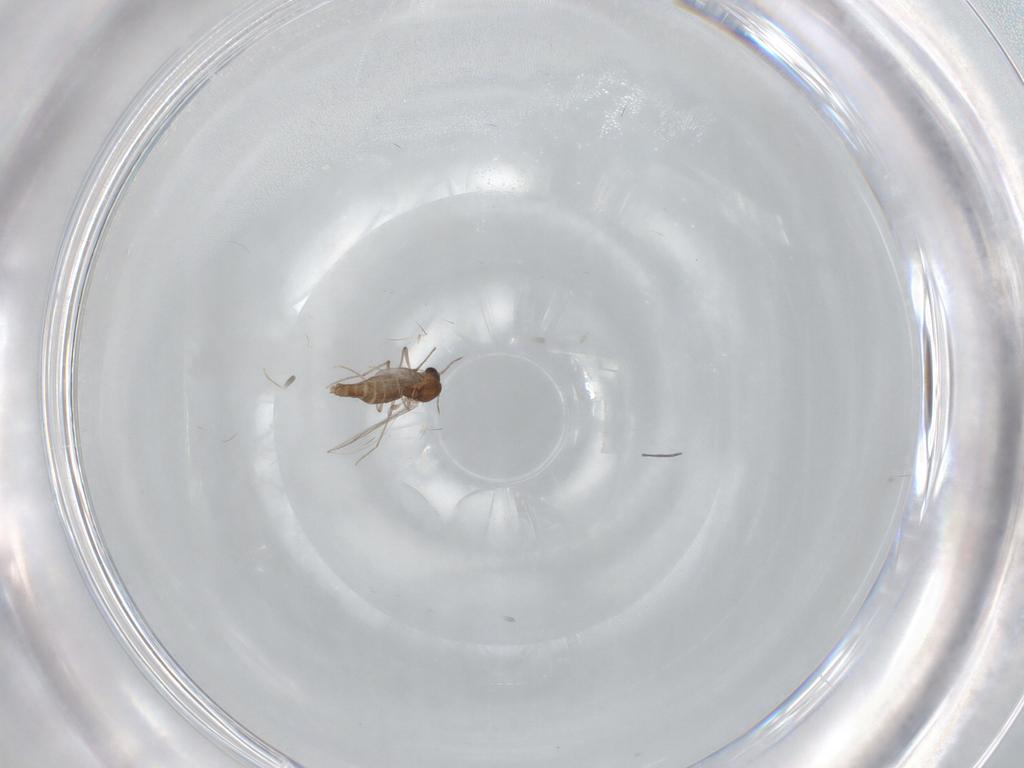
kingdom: Animalia
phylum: Arthropoda
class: Insecta
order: Diptera
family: Chironomidae
